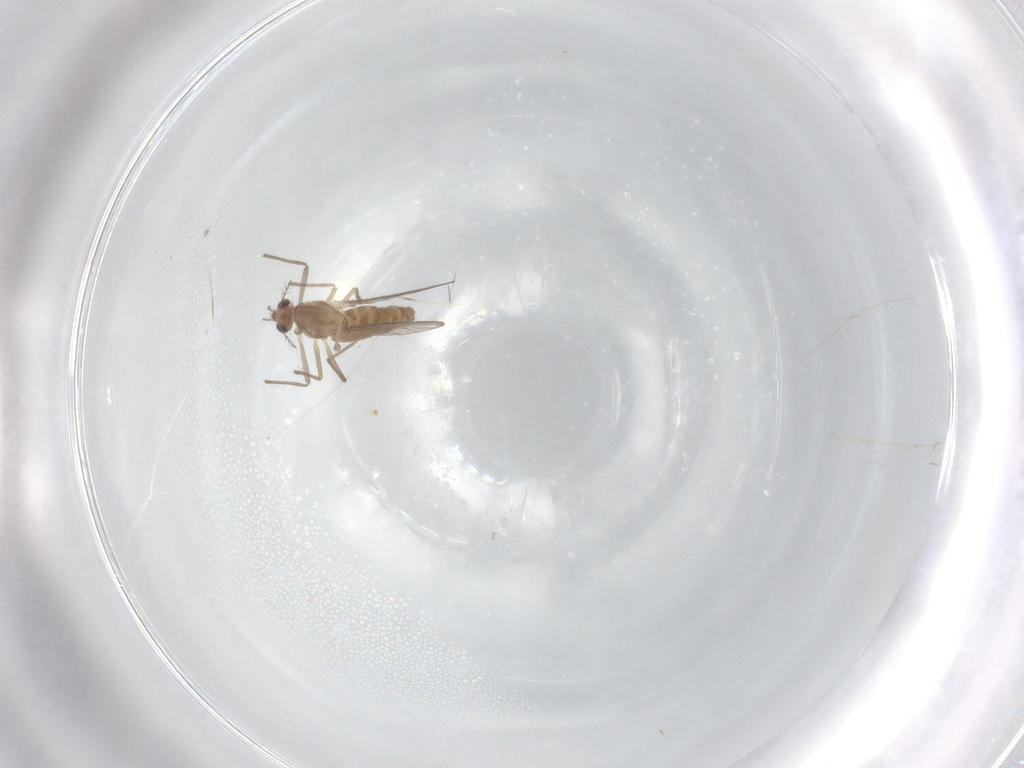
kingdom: Animalia
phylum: Arthropoda
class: Insecta
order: Diptera
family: Chironomidae
